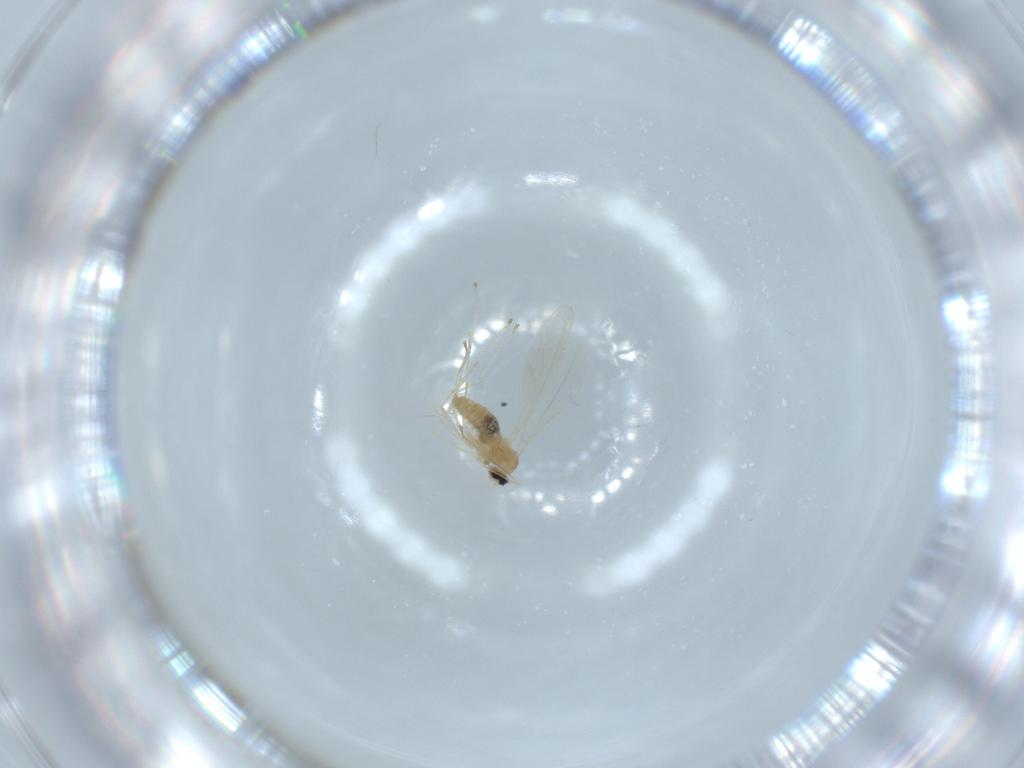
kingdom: Animalia
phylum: Arthropoda
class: Insecta
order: Diptera
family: Cecidomyiidae
